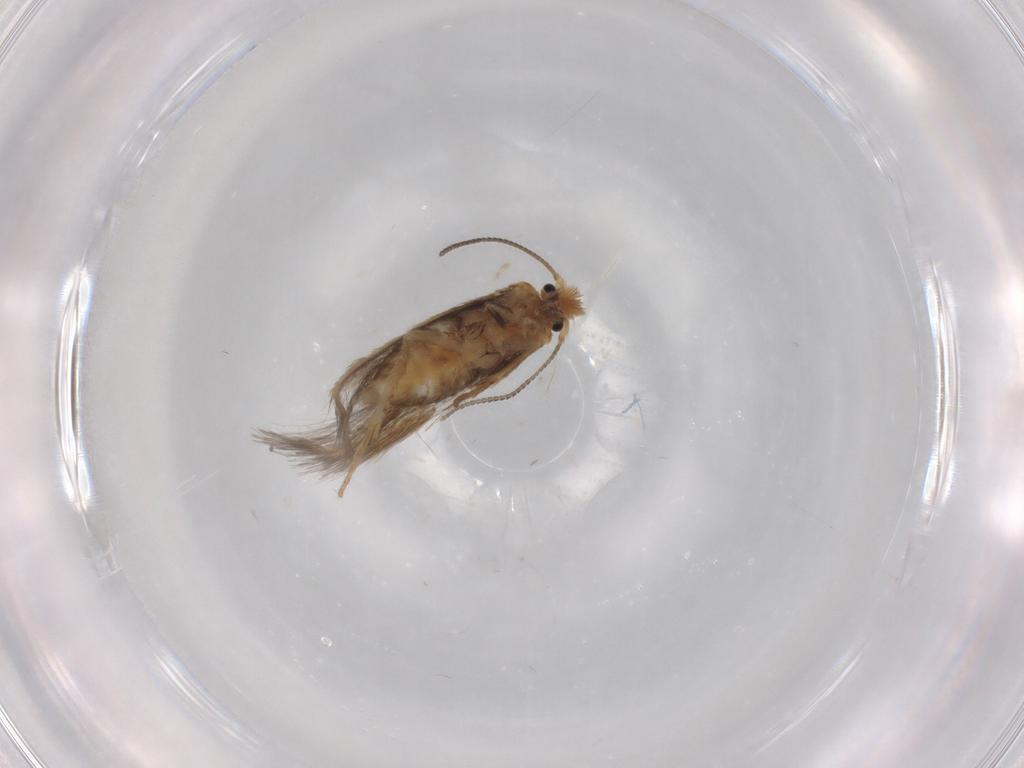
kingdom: Animalia
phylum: Arthropoda
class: Insecta
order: Lepidoptera
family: Nepticulidae
